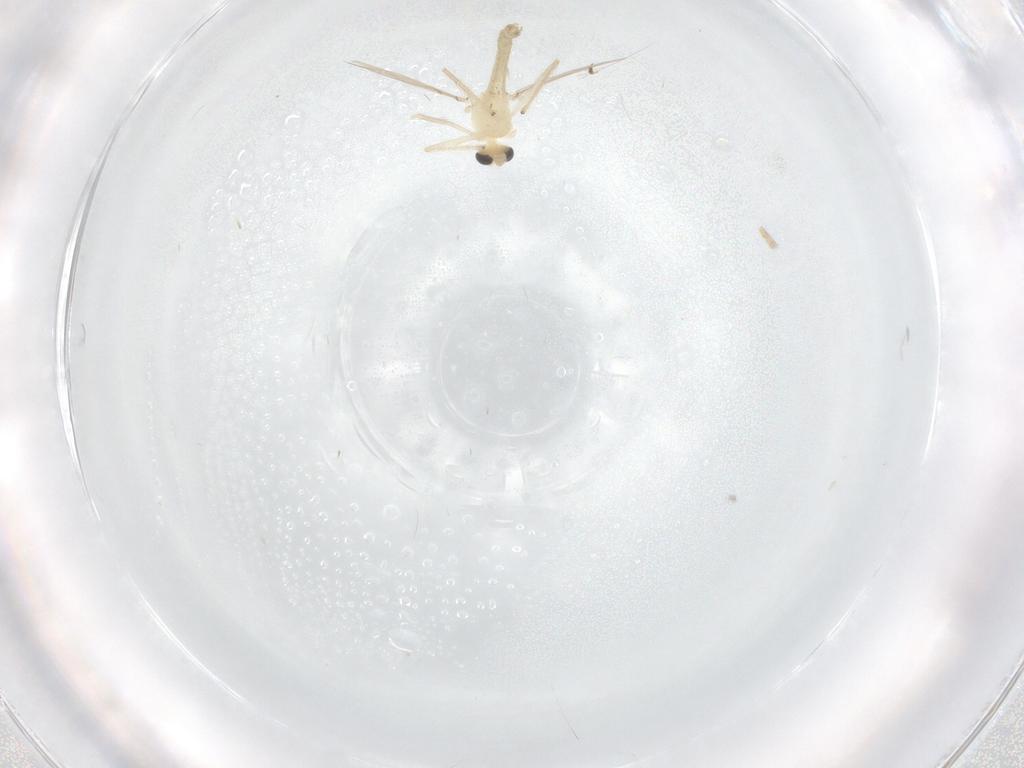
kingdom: Animalia
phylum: Arthropoda
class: Insecta
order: Diptera
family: Chironomidae
